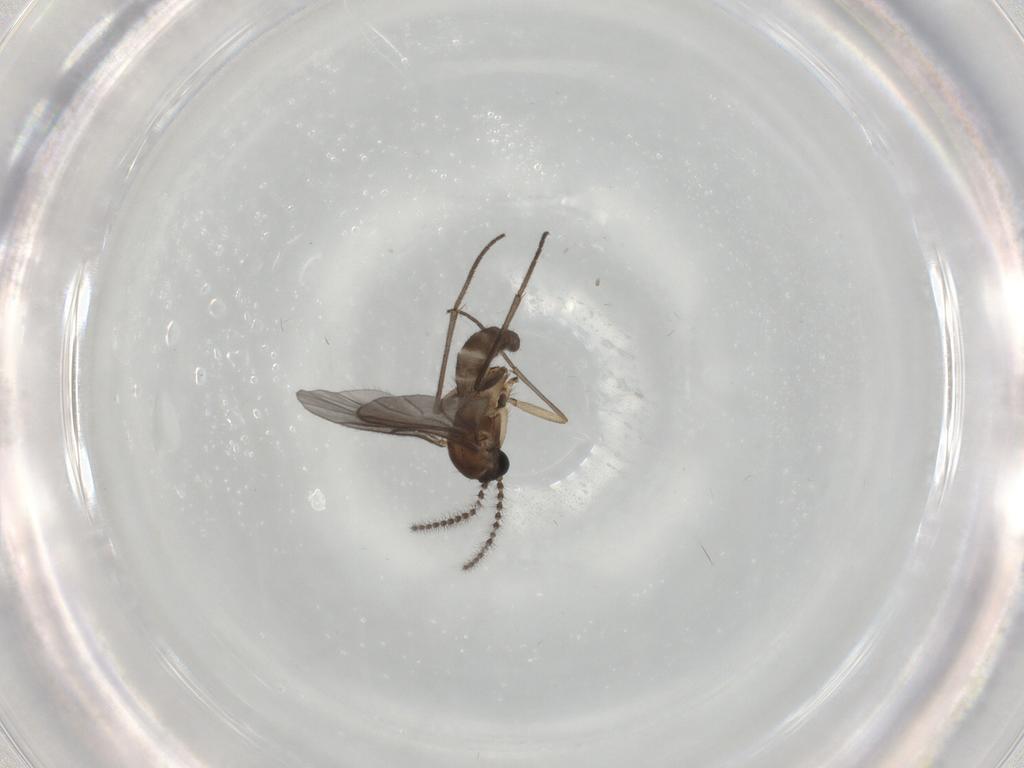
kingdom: Animalia
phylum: Arthropoda
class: Insecta
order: Diptera
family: Sciaridae
